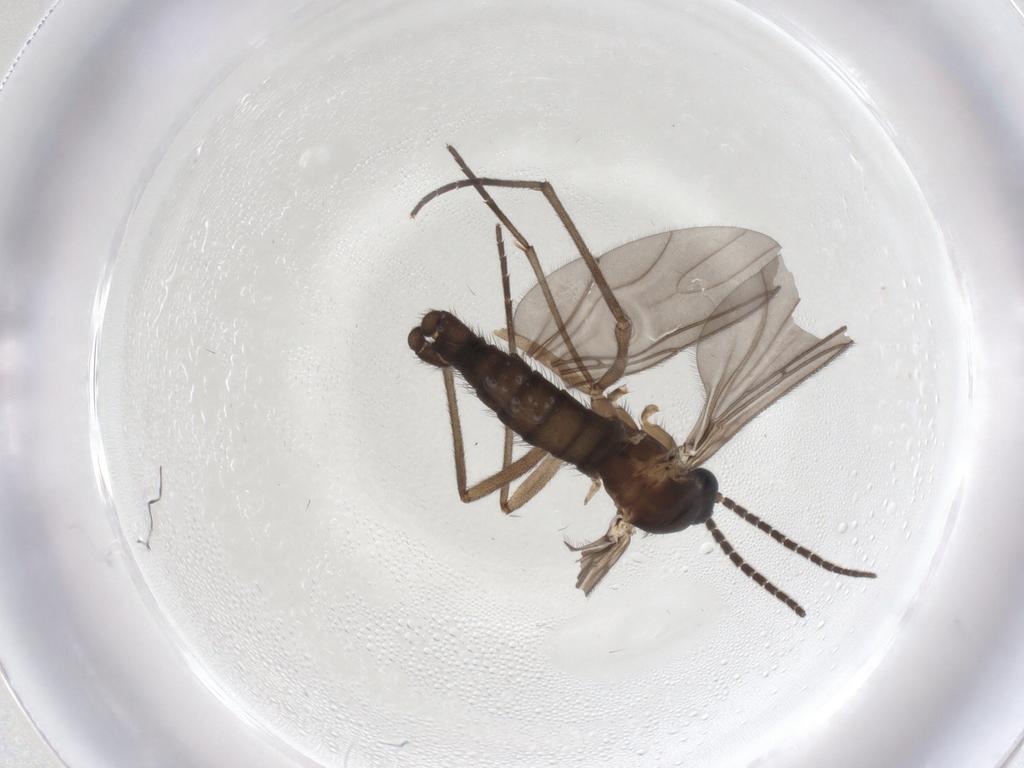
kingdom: Animalia
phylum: Arthropoda
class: Insecta
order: Diptera
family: Sciaridae
